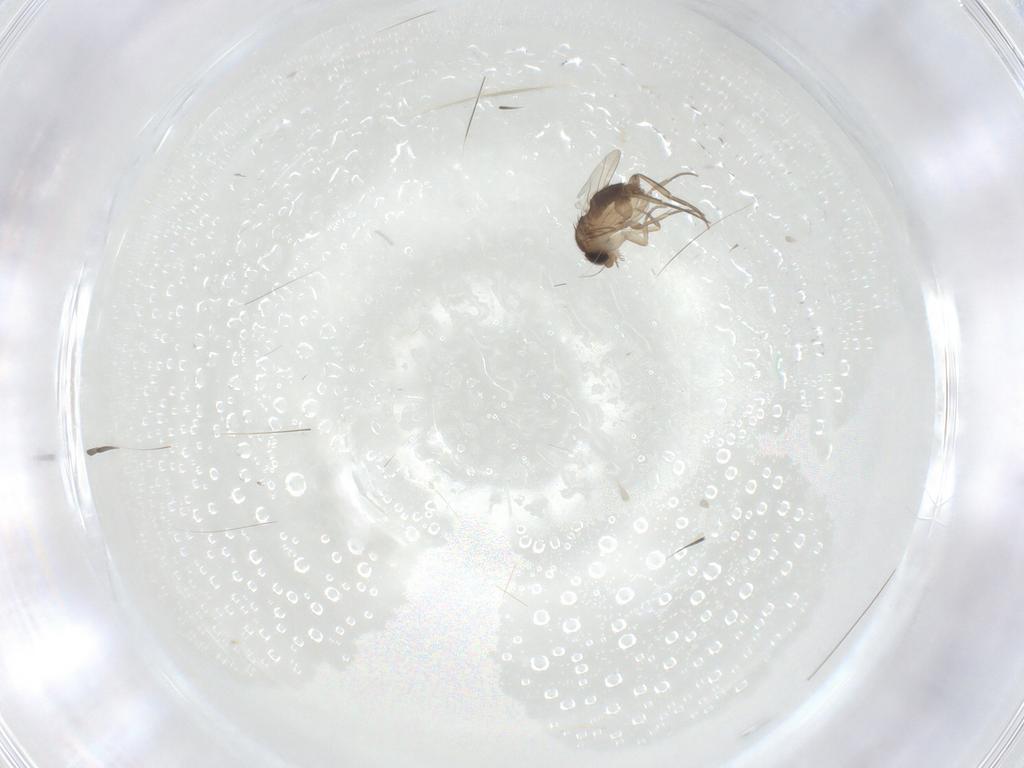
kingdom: Animalia
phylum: Arthropoda
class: Insecta
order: Diptera
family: Phoridae
